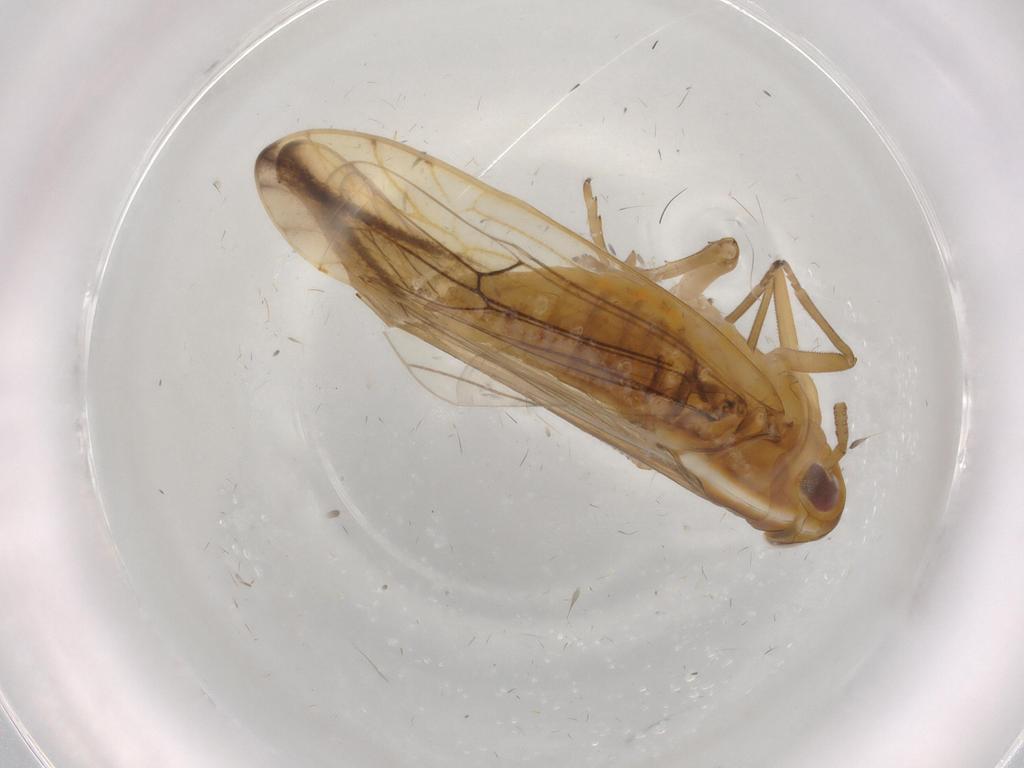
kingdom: Animalia
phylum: Arthropoda
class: Insecta
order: Hemiptera
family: Delphacidae
